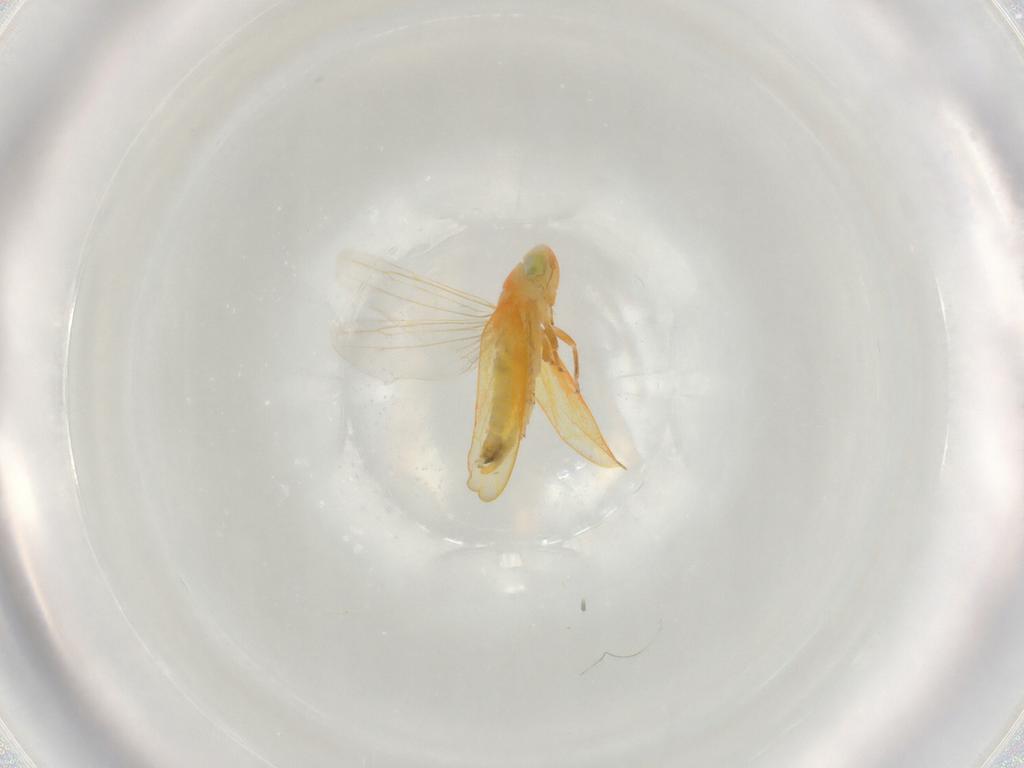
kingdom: Animalia
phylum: Arthropoda
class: Insecta
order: Hemiptera
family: Cicadellidae
